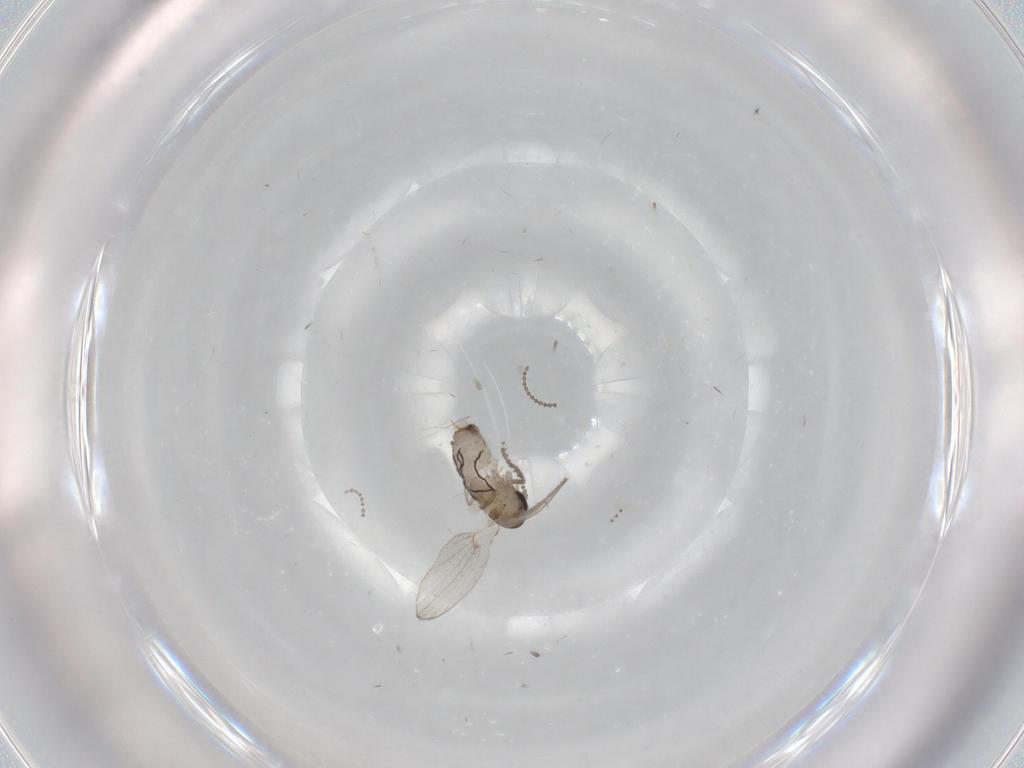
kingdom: Animalia
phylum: Arthropoda
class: Insecta
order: Diptera
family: Psychodidae
